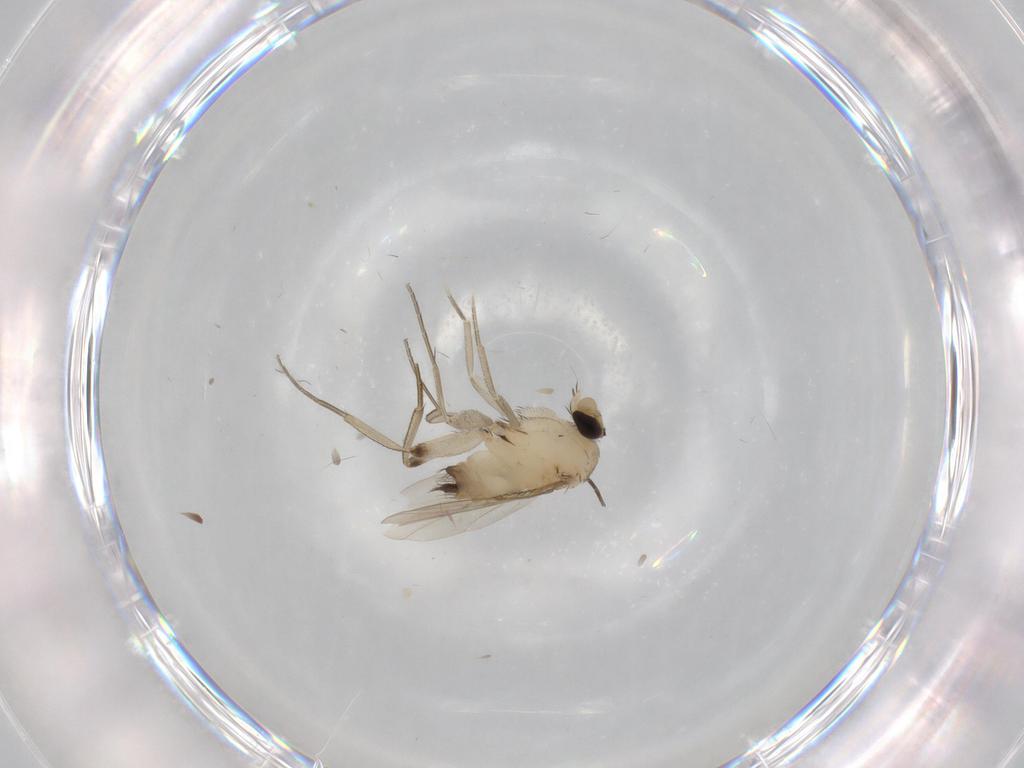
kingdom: Animalia
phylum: Arthropoda
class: Insecta
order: Diptera
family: Phoridae
